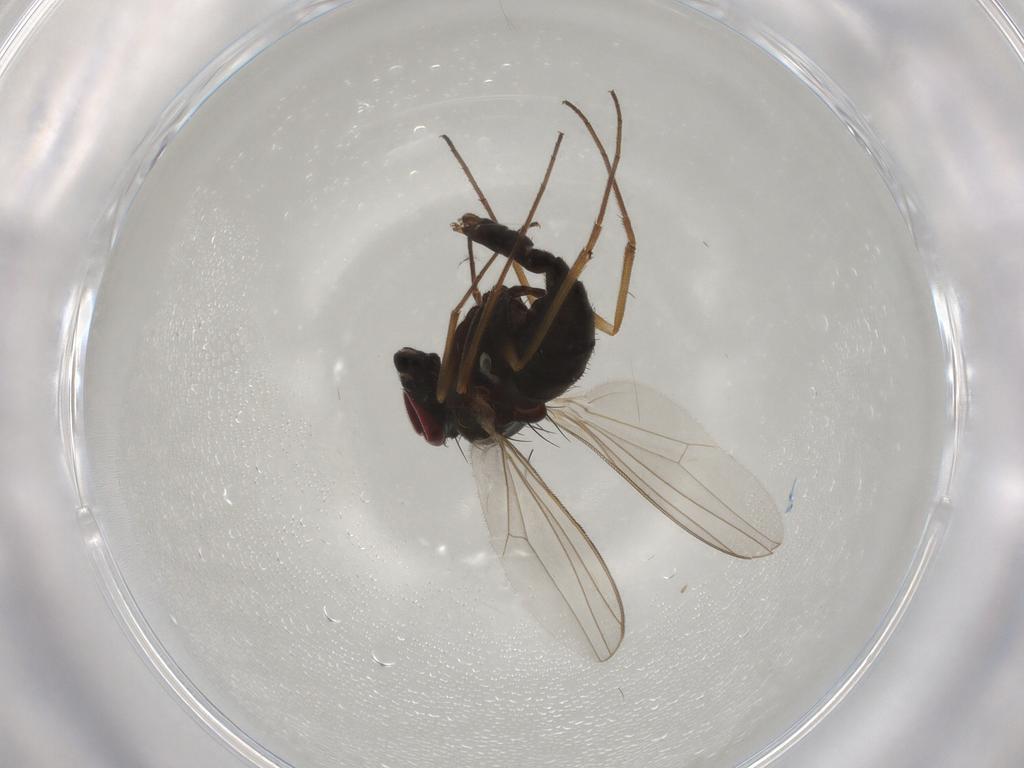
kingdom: Animalia
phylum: Arthropoda
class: Insecta
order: Diptera
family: Dolichopodidae
